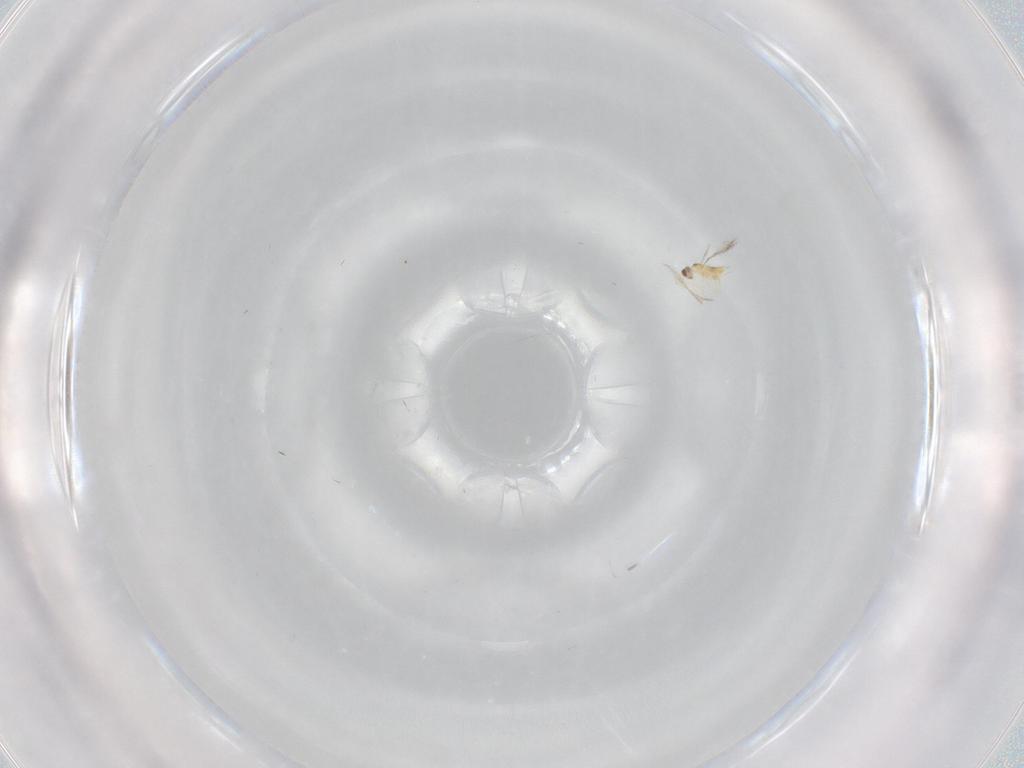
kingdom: Animalia
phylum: Arthropoda
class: Insecta
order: Hymenoptera
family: Mymaridae
